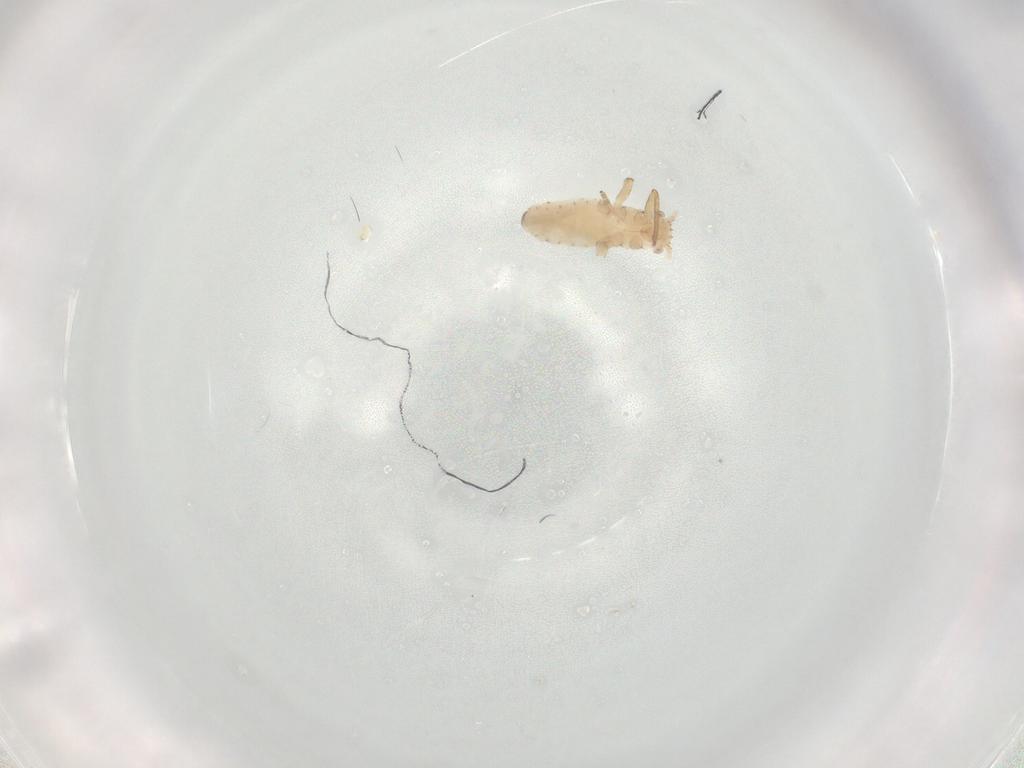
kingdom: Animalia
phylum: Arthropoda
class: Insecta
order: Hemiptera
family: Aphididae
